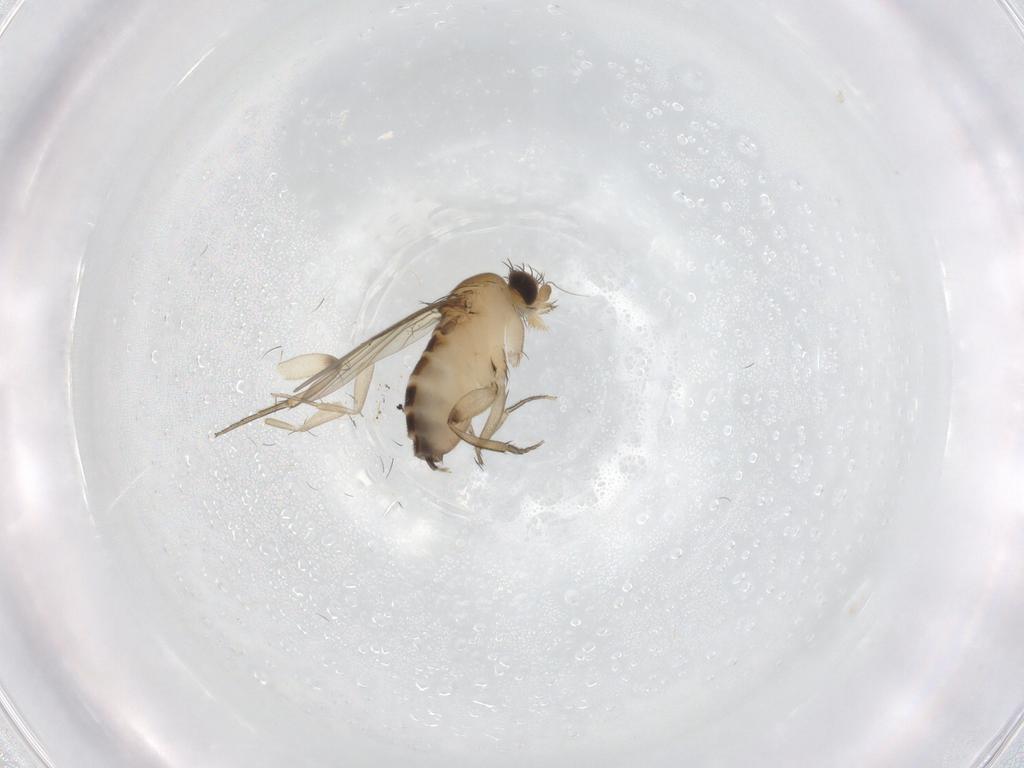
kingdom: Animalia
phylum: Arthropoda
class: Insecta
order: Diptera
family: Phoridae
